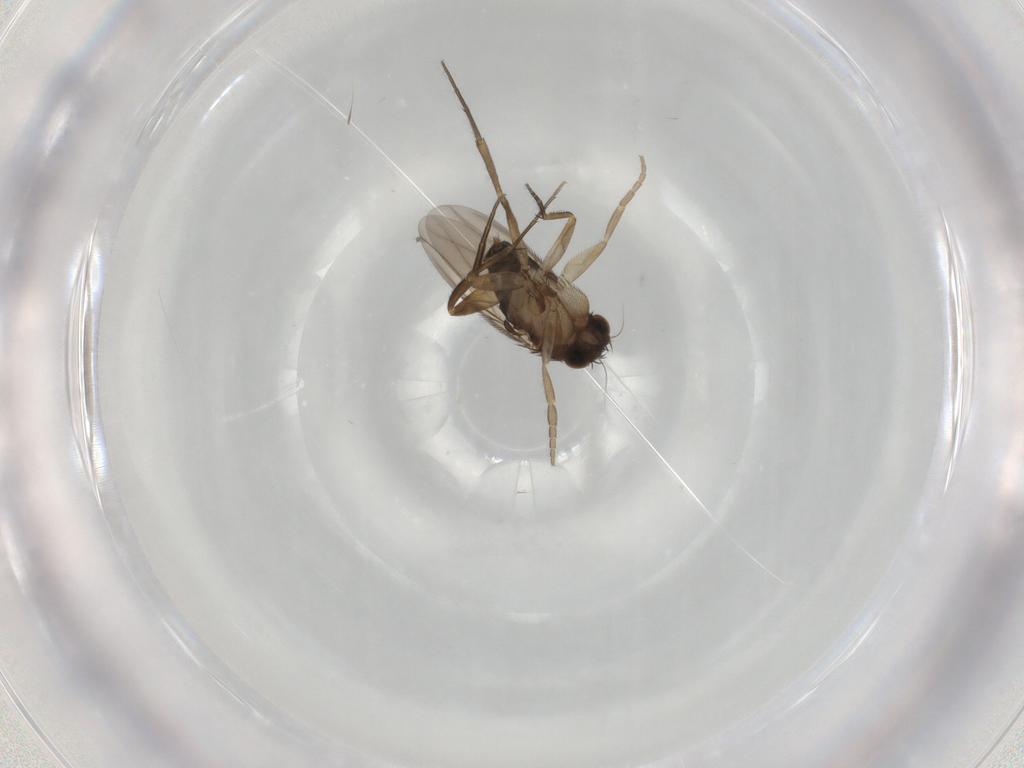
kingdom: Animalia
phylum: Arthropoda
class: Insecta
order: Diptera
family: Phoridae
